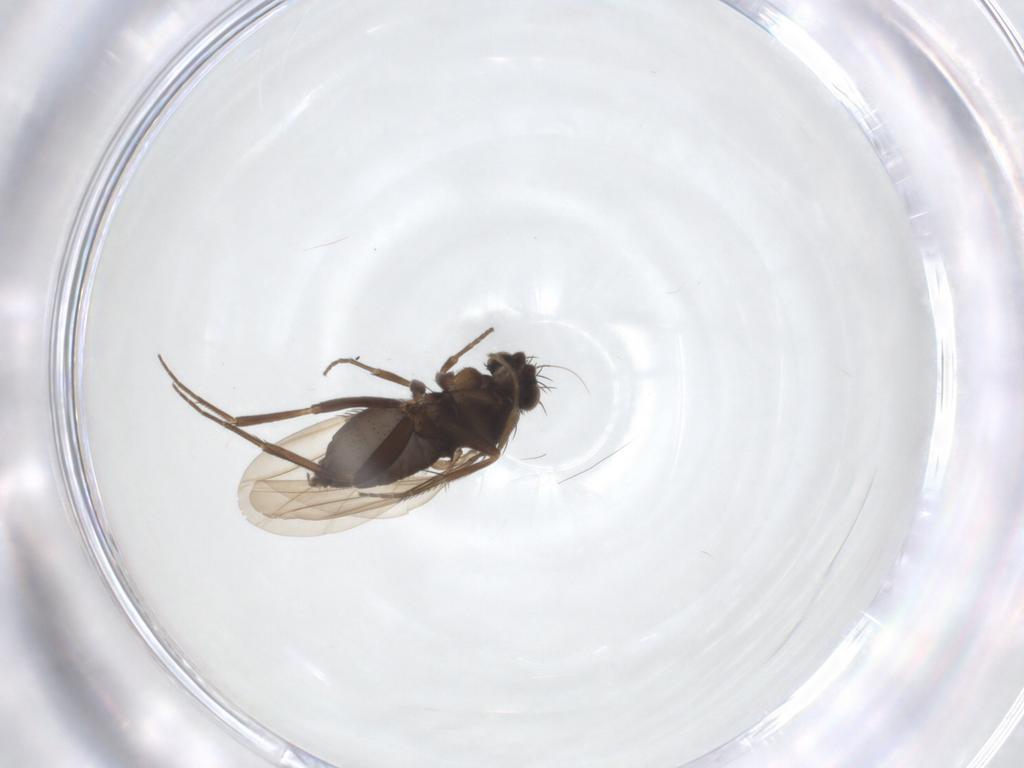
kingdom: Animalia
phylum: Arthropoda
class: Insecta
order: Diptera
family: Phoridae
